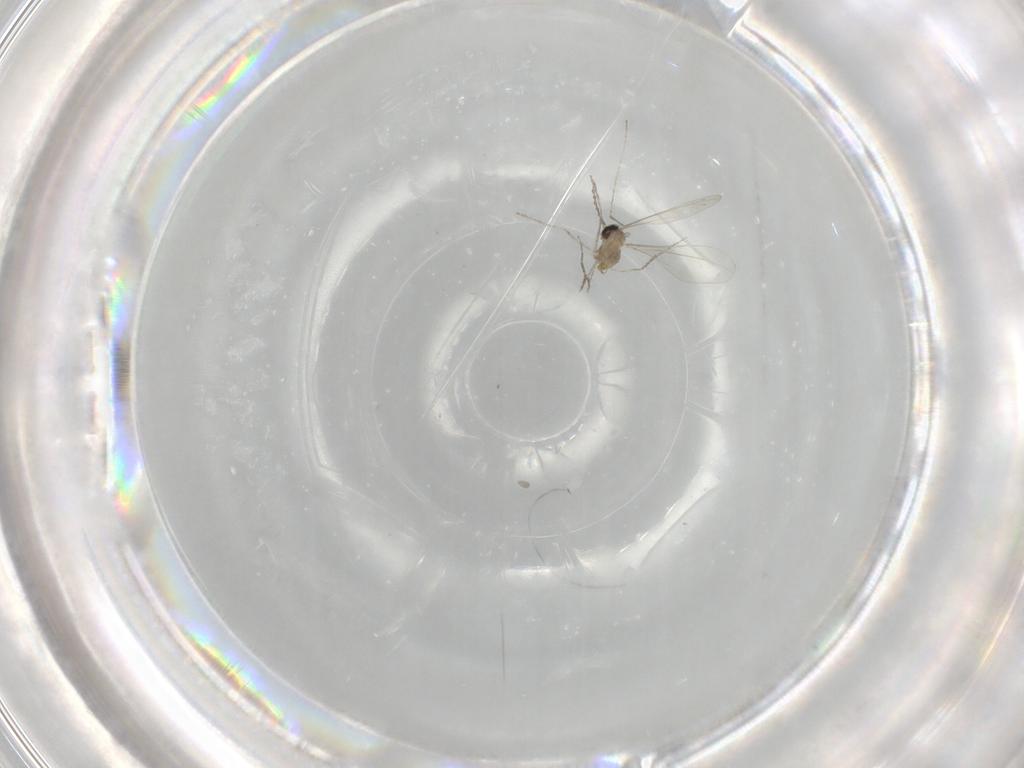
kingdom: Animalia
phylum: Arthropoda
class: Insecta
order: Diptera
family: Cecidomyiidae
